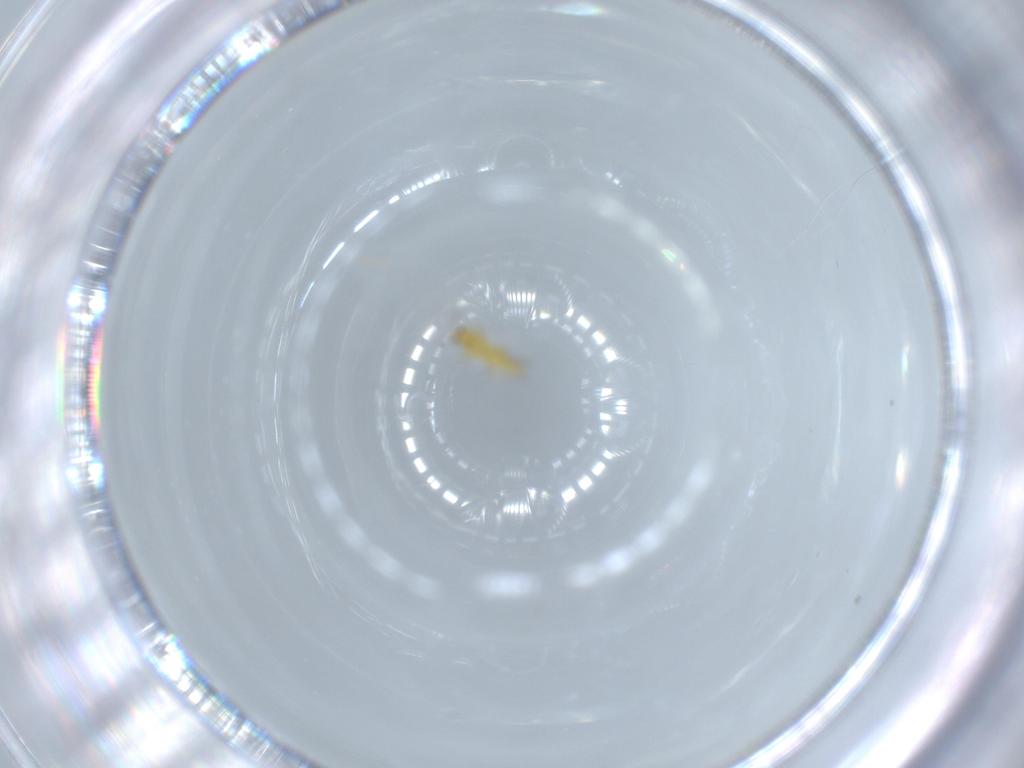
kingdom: Animalia
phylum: Arthropoda
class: Insecta
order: Thysanoptera
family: Thripidae
